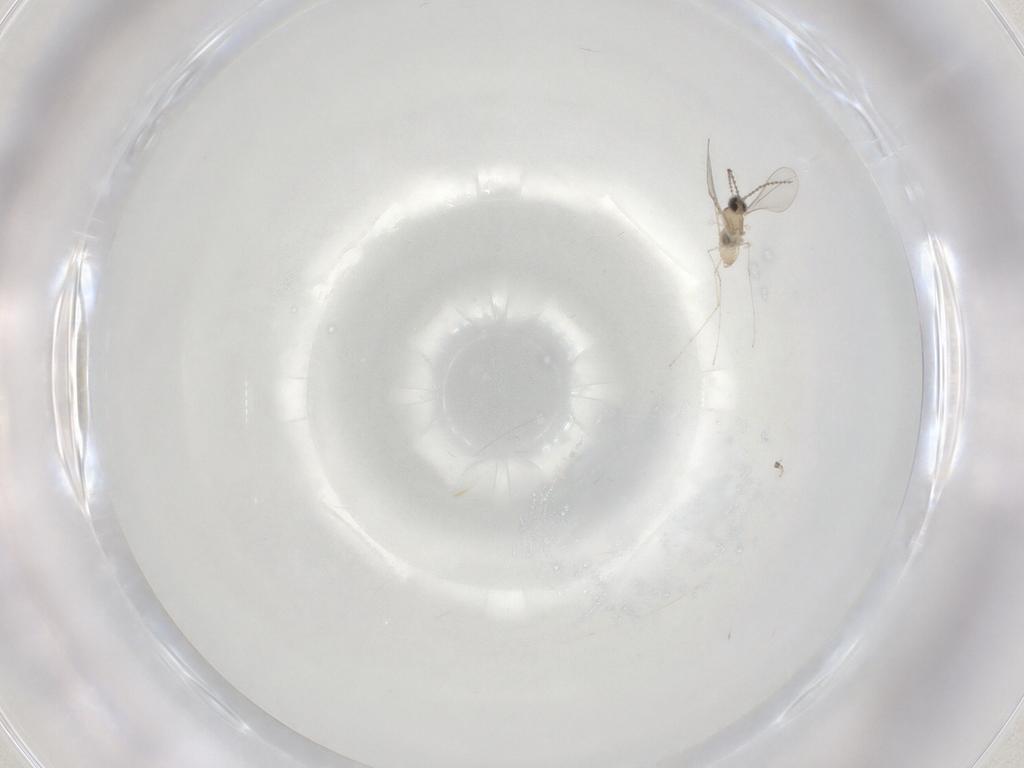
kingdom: Animalia
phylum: Arthropoda
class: Insecta
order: Diptera
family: Cecidomyiidae
